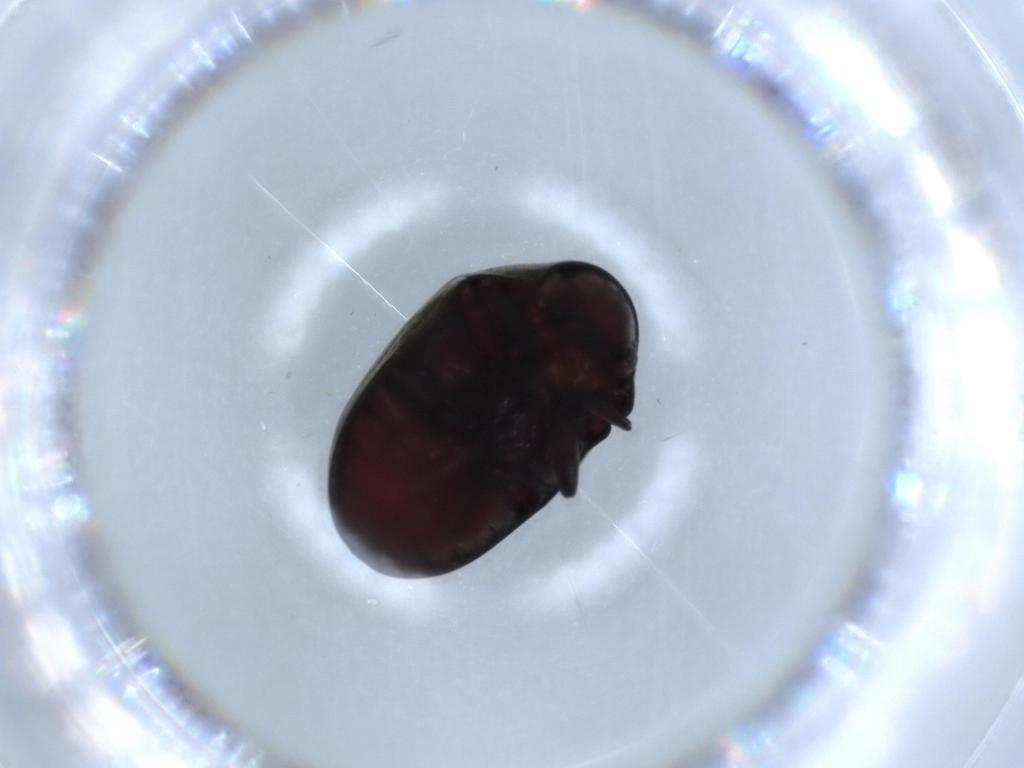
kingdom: Animalia
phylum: Arthropoda
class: Insecta
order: Coleoptera
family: Ptinidae
